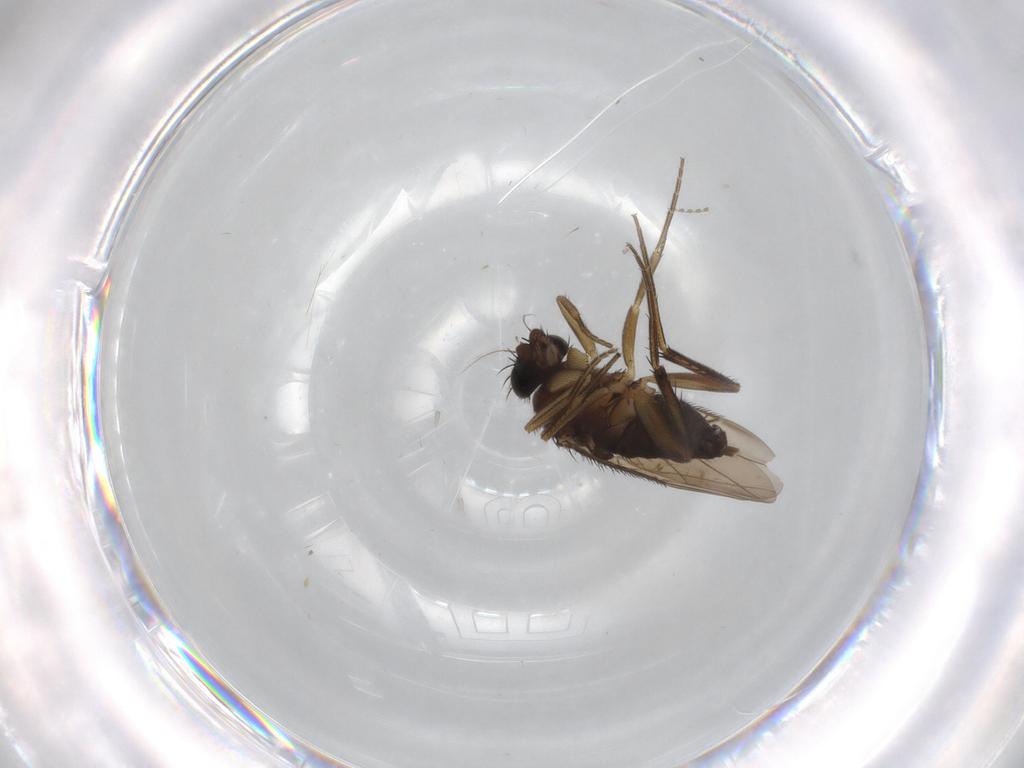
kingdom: Animalia
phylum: Arthropoda
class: Insecta
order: Diptera
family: Phoridae
